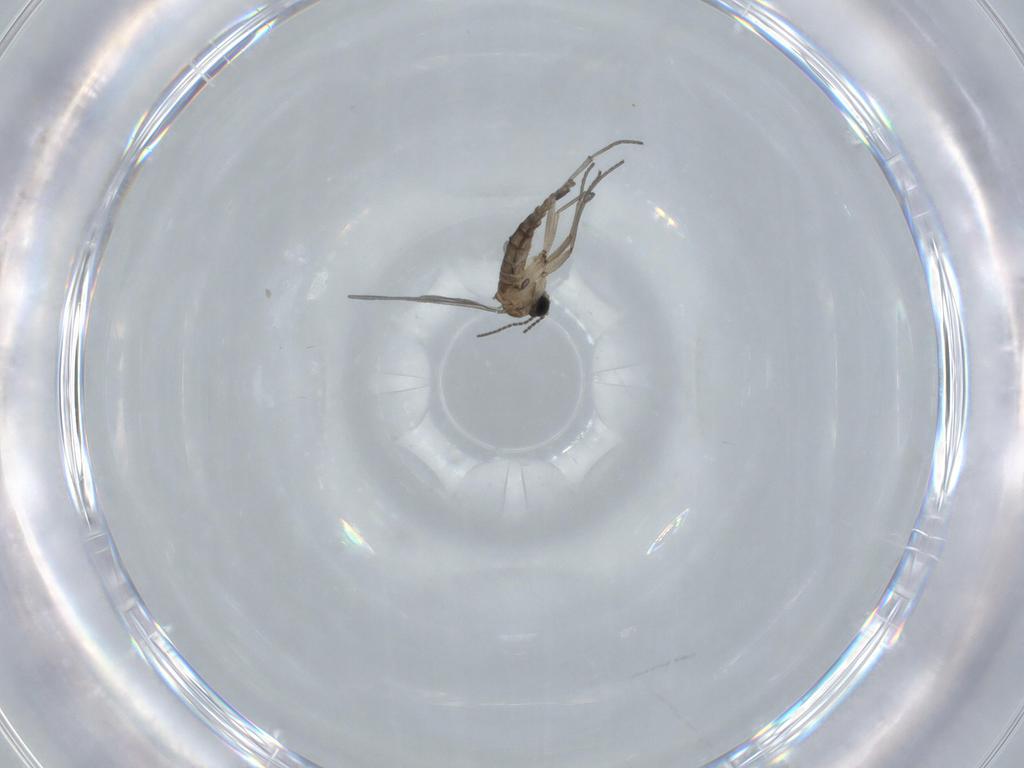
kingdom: Animalia
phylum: Arthropoda
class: Insecta
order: Diptera
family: Sciaridae
